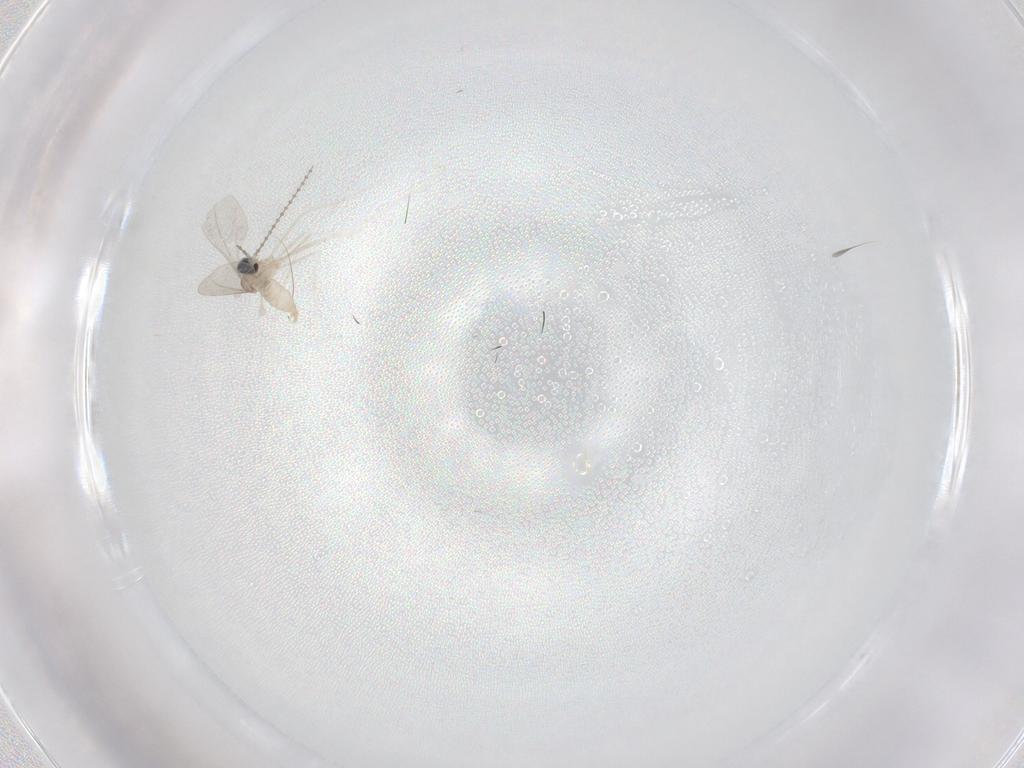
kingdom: Animalia
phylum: Arthropoda
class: Insecta
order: Diptera
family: Cecidomyiidae
